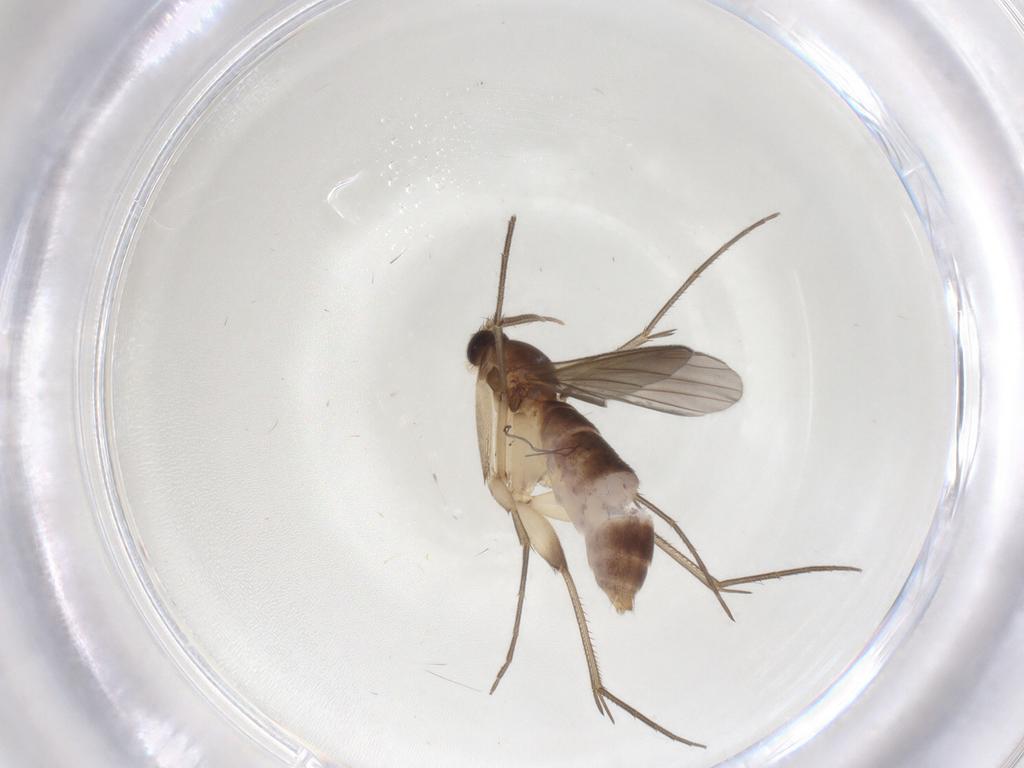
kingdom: Animalia
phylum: Arthropoda
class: Insecta
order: Diptera
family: Mycetophilidae
